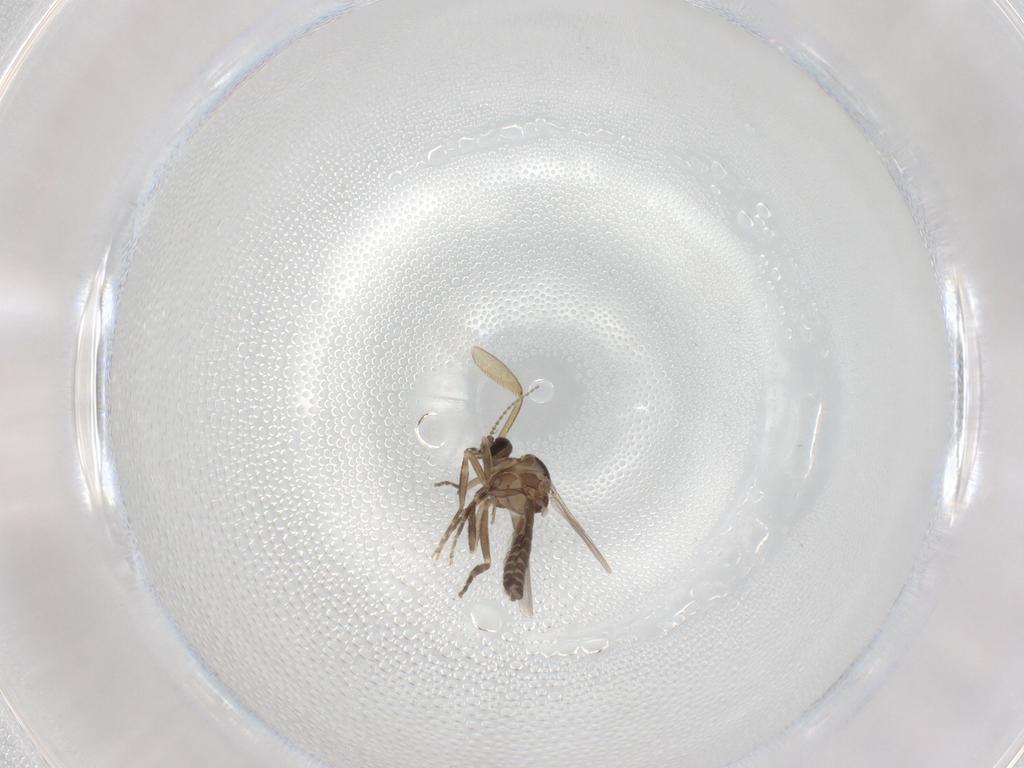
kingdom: Animalia
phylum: Arthropoda
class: Insecta
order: Diptera
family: Ceratopogonidae
